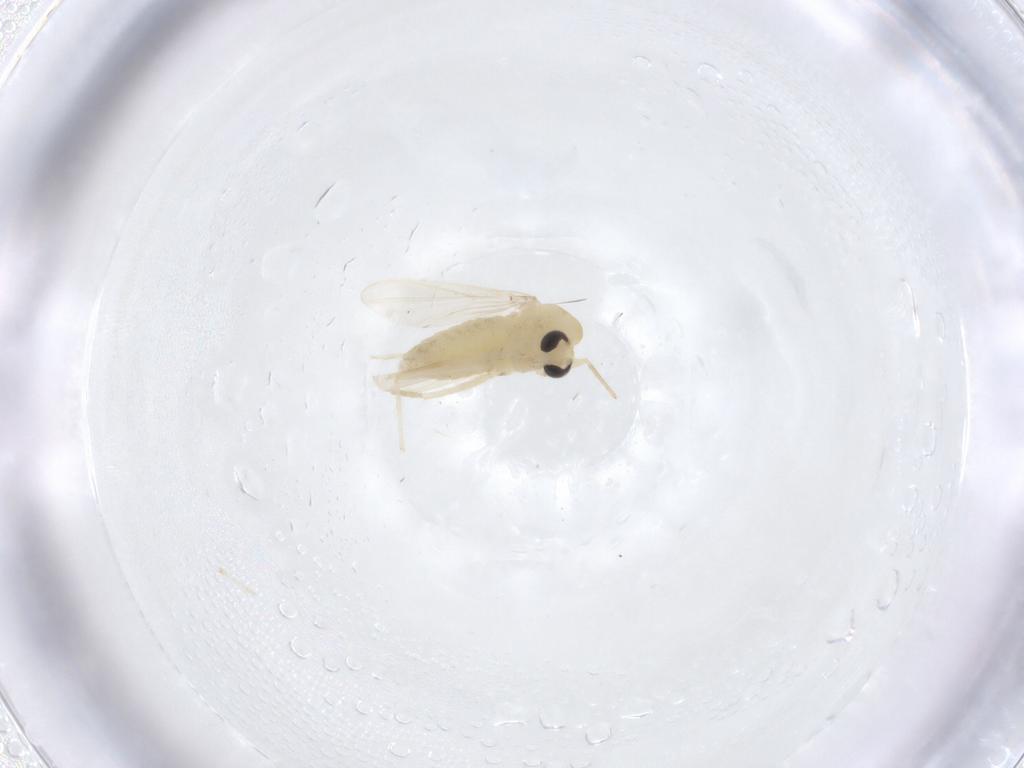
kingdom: Animalia
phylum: Arthropoda
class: Insecta
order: Diptera
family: Chironomidae
